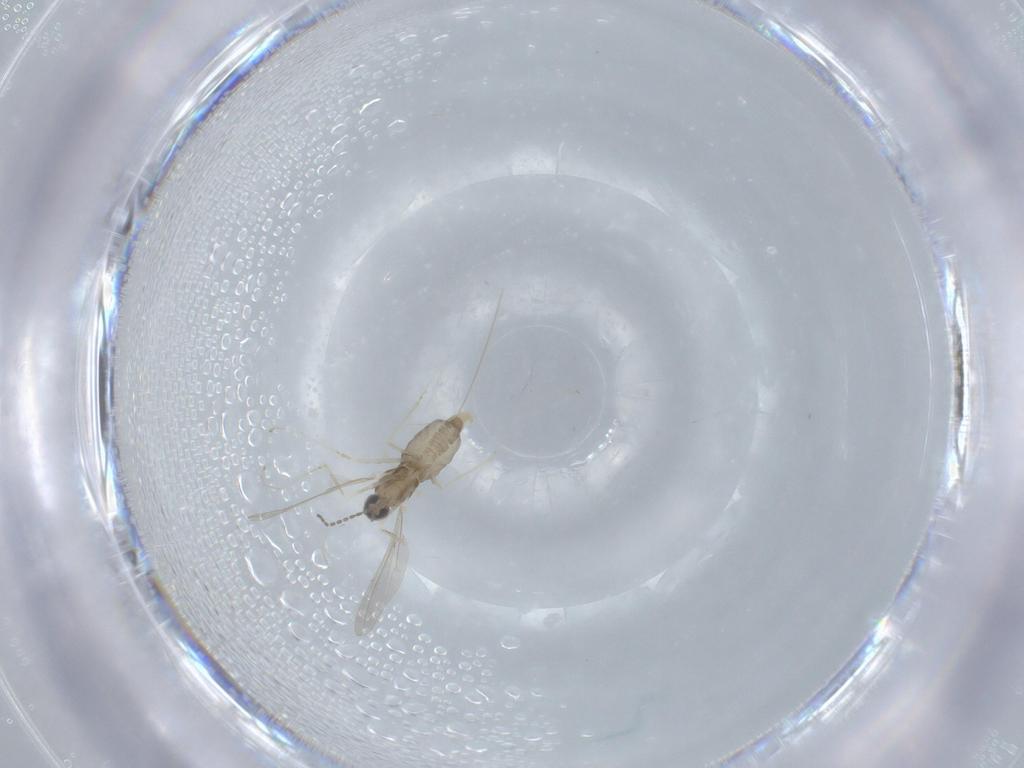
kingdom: Animalia
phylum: Arthropoda
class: Insecta
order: Diptera
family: Cecidomyiidae
